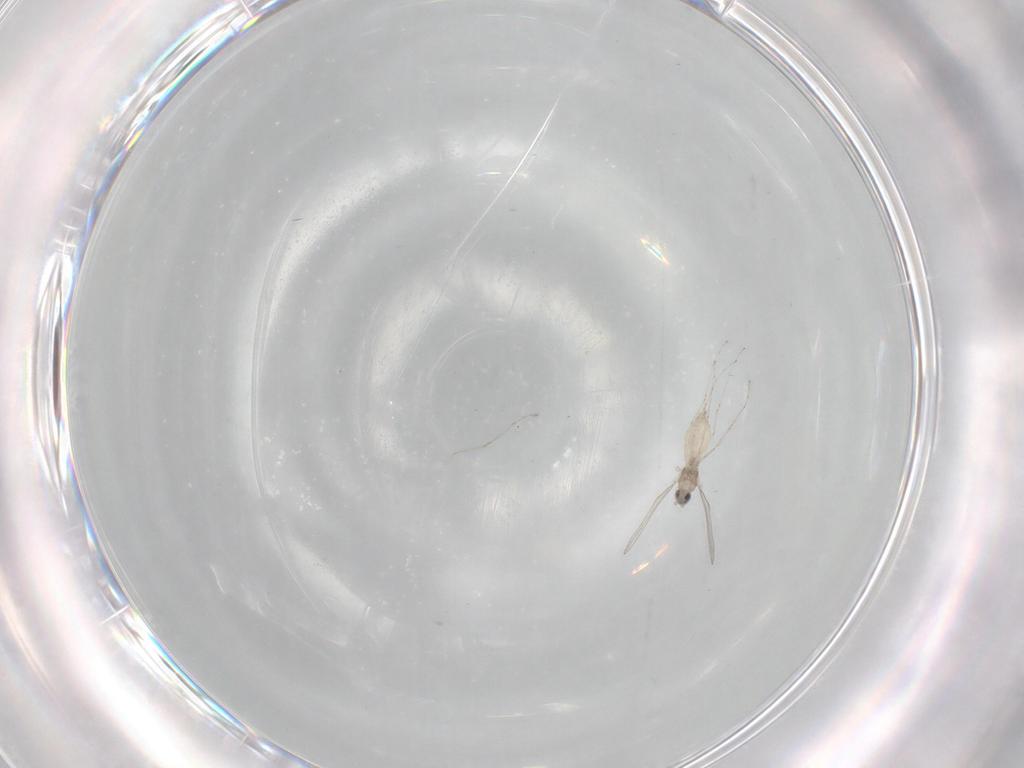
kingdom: Animalia
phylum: Arthropoda
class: Insecta
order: Diptera
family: Cecidomyiidae
